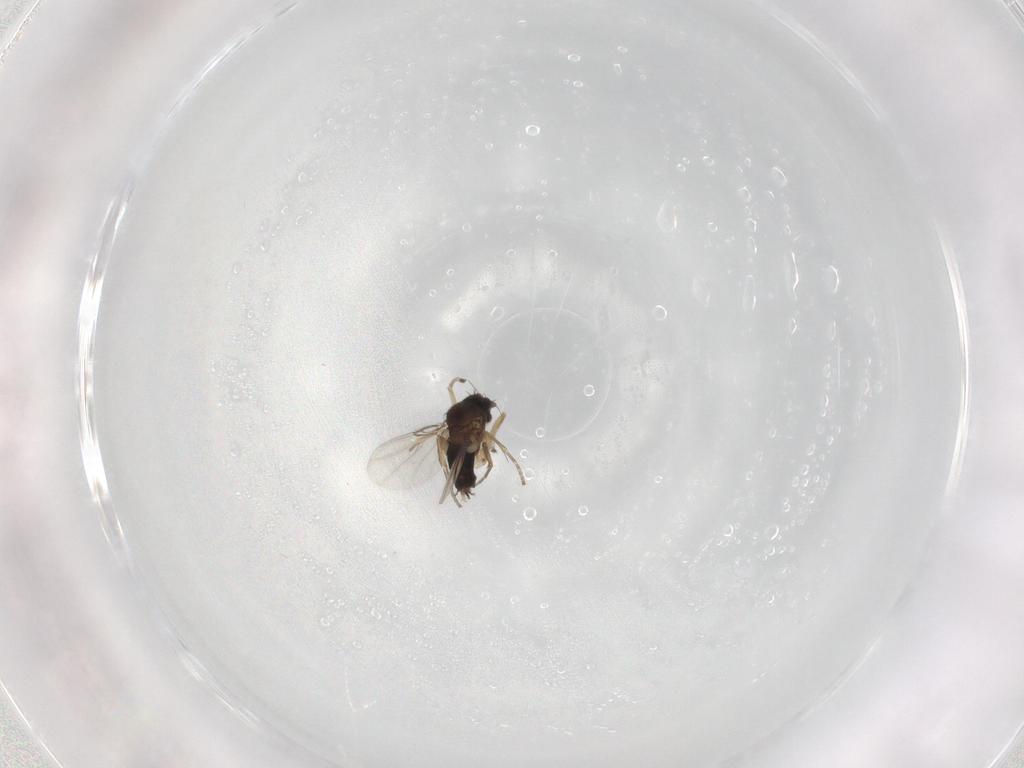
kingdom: Animalia
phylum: Arthropoda
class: Insecta
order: Diptera
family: Phoridae
